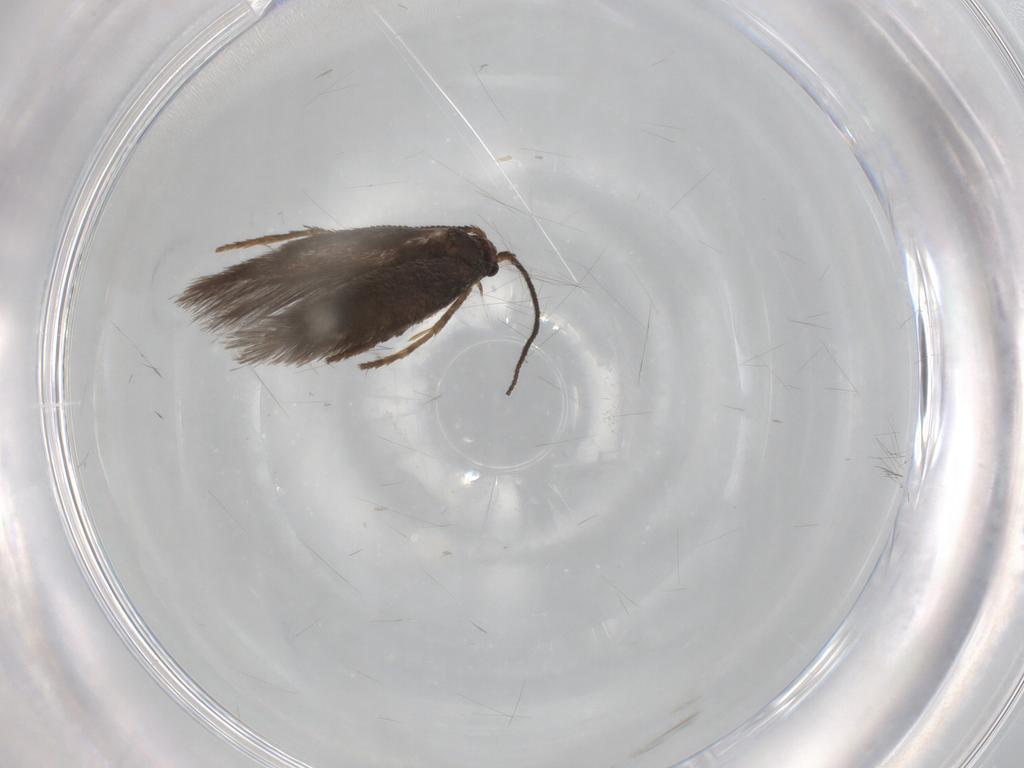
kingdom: Animalia
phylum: Arthropoda
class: Insecta
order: Lepidoptera
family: Nepticulidae
